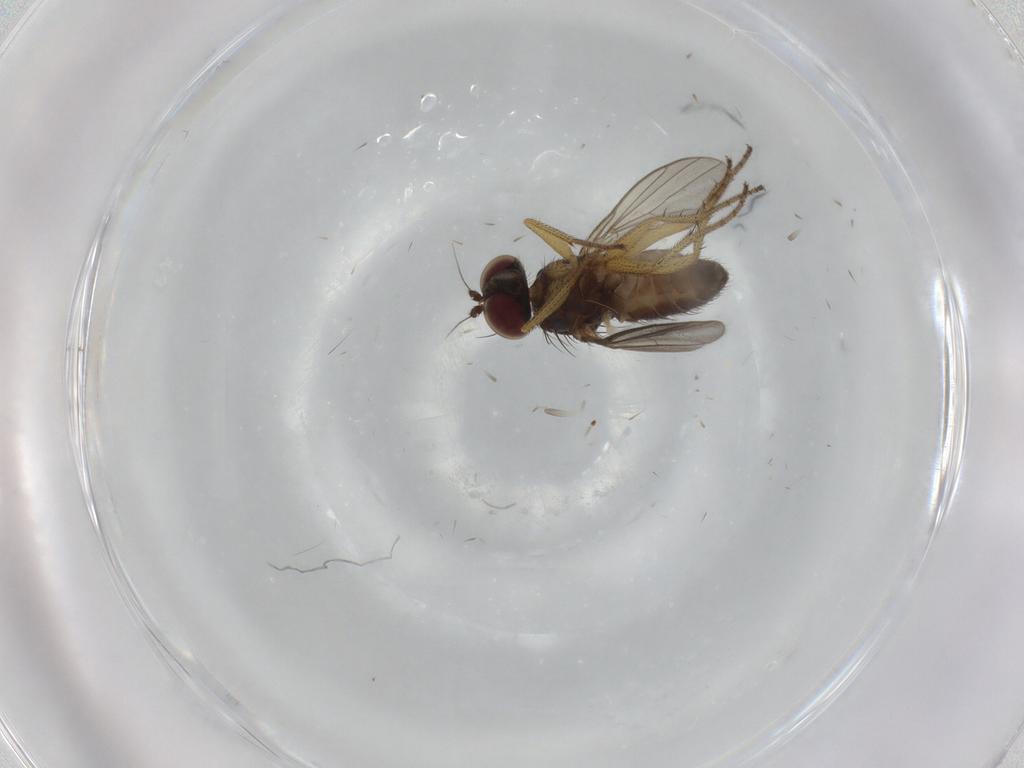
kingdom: Animalia
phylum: Arthropoda
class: Insecta
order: Diptera
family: Dolichopodidae
